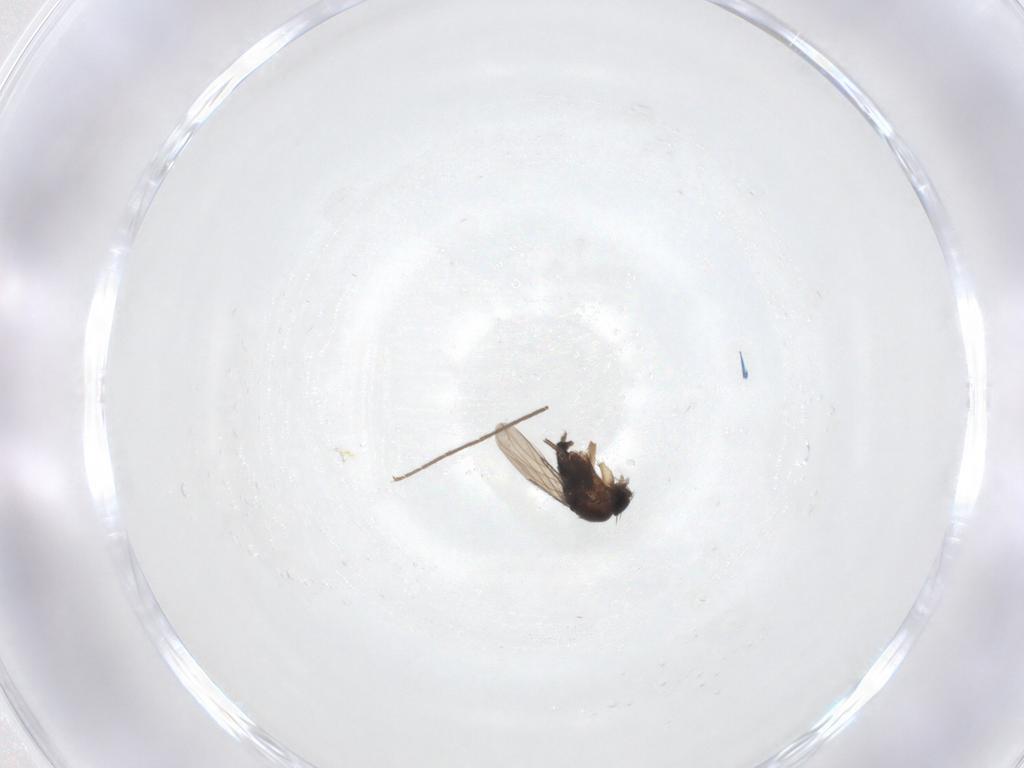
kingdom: Animalia
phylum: Arthropoda
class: Insecta
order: Diptera
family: Phoridae
